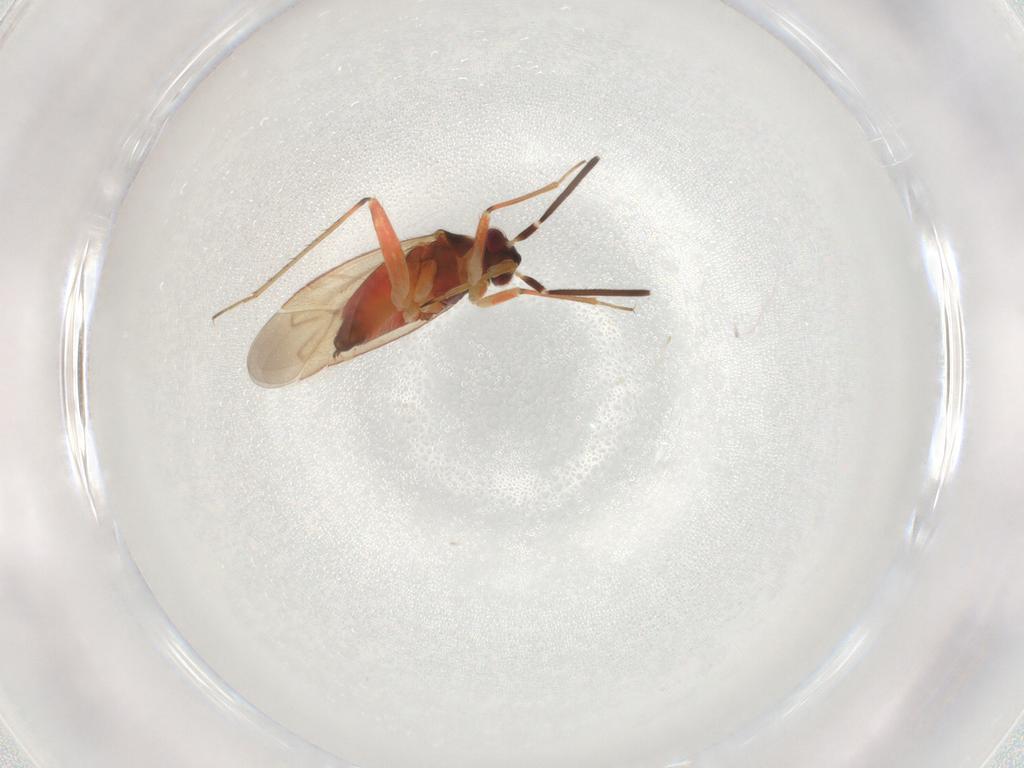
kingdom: Animalia
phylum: Arthropoda
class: Insecta
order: Hemiptera
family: Miridae
